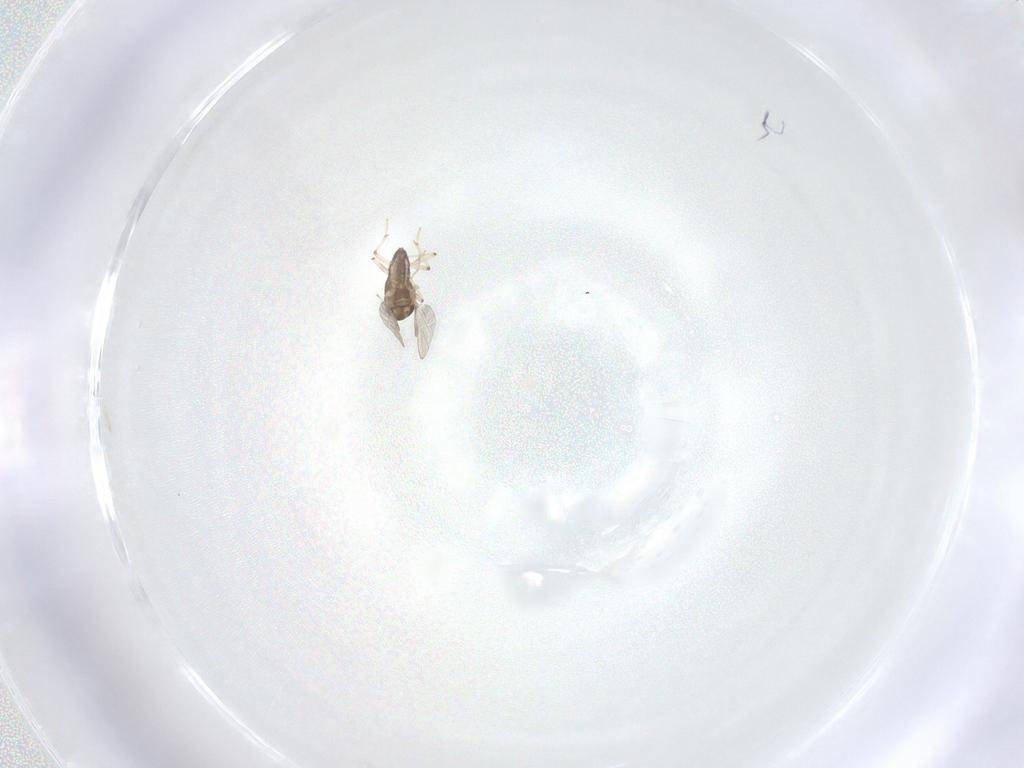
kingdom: Animalia
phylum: Arthropoda
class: Insecta
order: Diptera
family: Chironomidae
